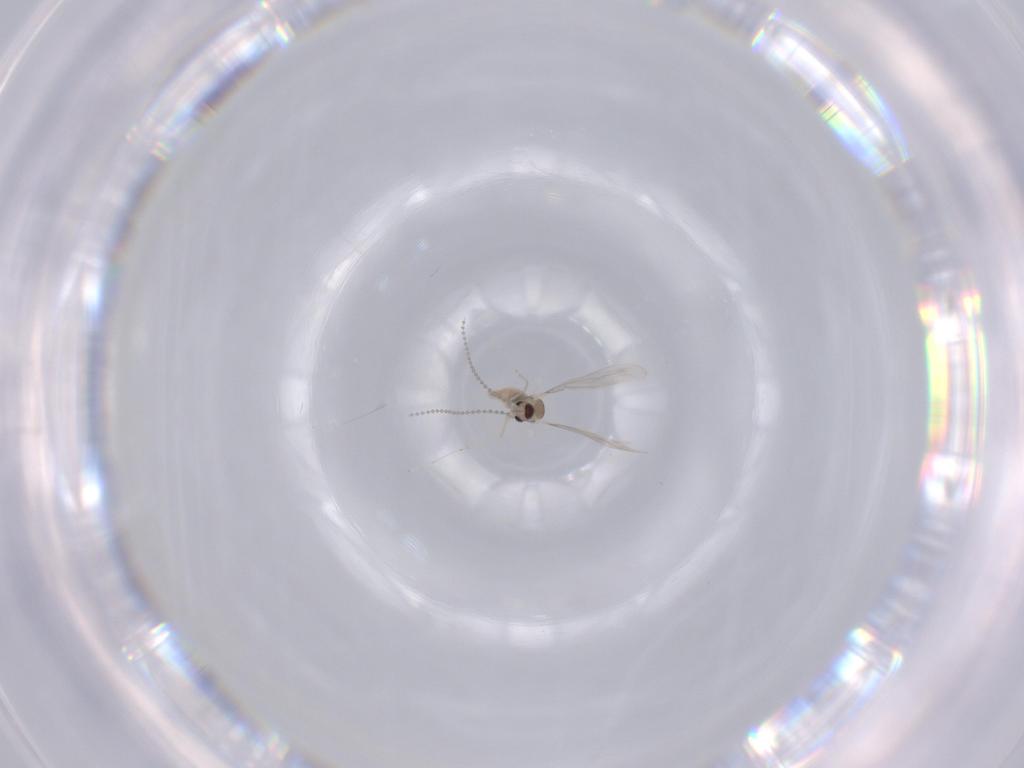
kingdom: Animalia
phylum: Arthropoda
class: Insecta
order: Diptera
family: Cecidomyiidae
